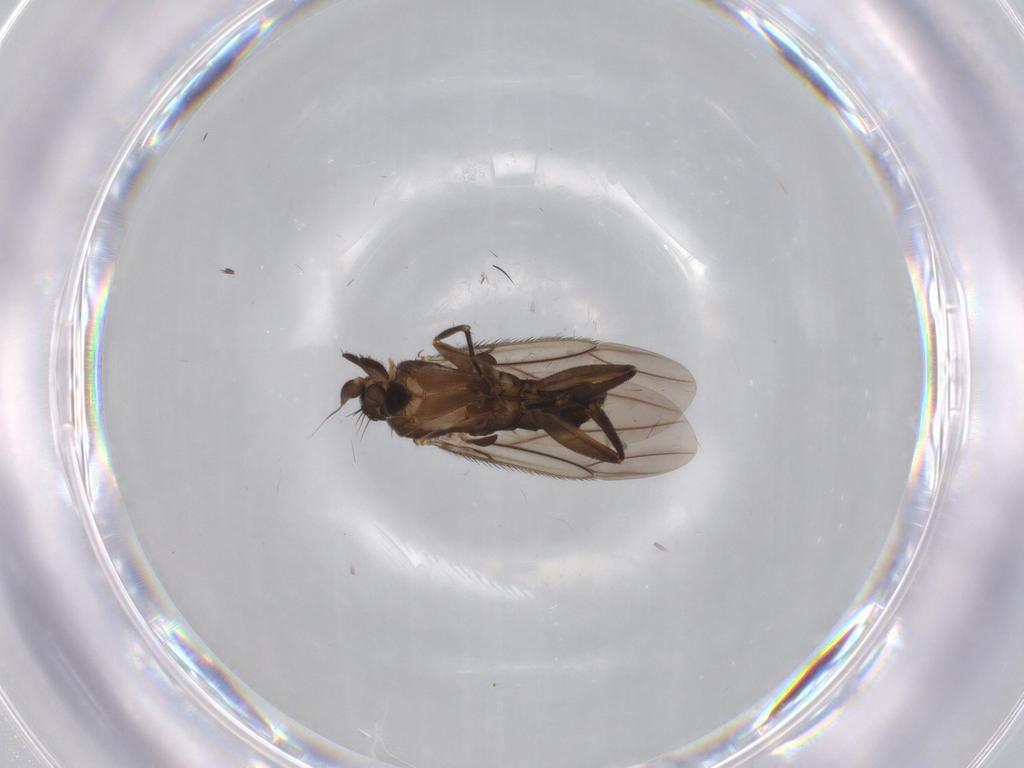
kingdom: Animalia
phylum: Arthropoda
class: Insecta
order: Diptera
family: Phoridae
